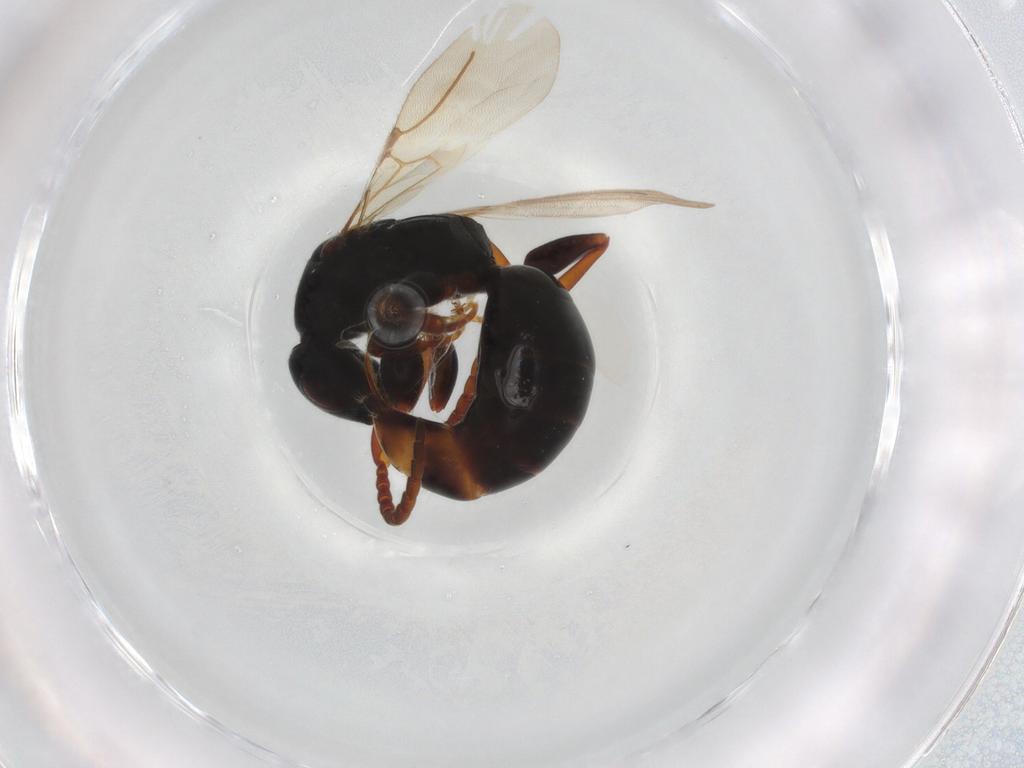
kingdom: Animalia
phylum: Arthropoda
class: Insecta
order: Hymenoptera
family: Bethylidae
